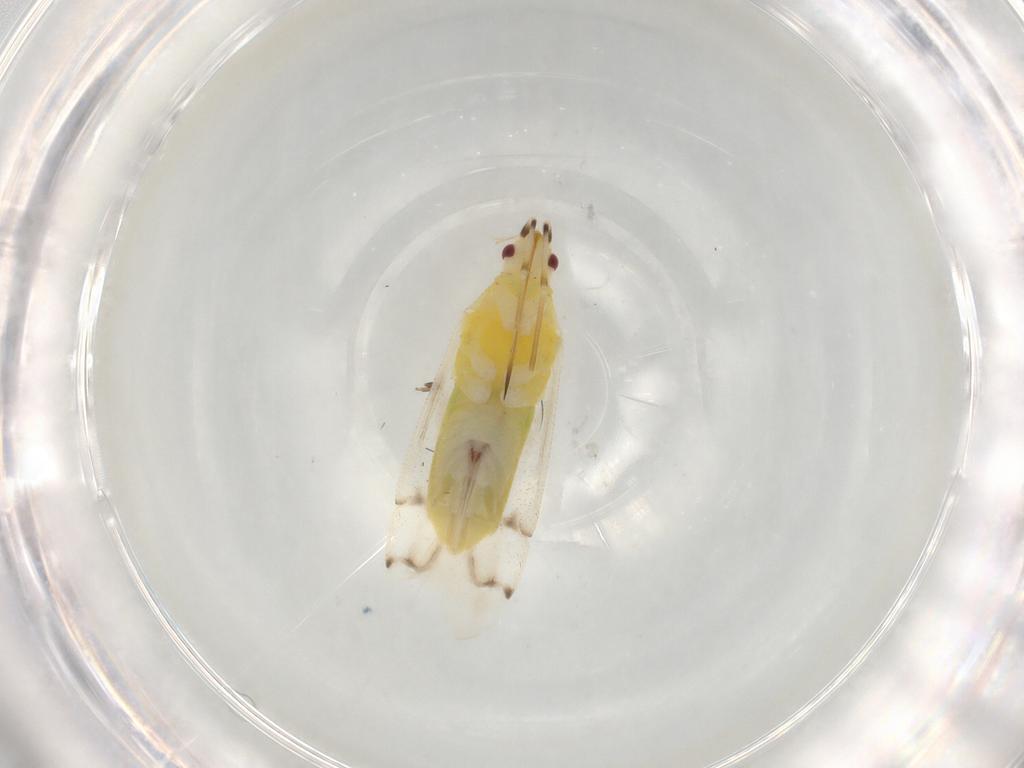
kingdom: Animalia
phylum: Arthropoda
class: Insecta
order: Hemiptera
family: Miridae
